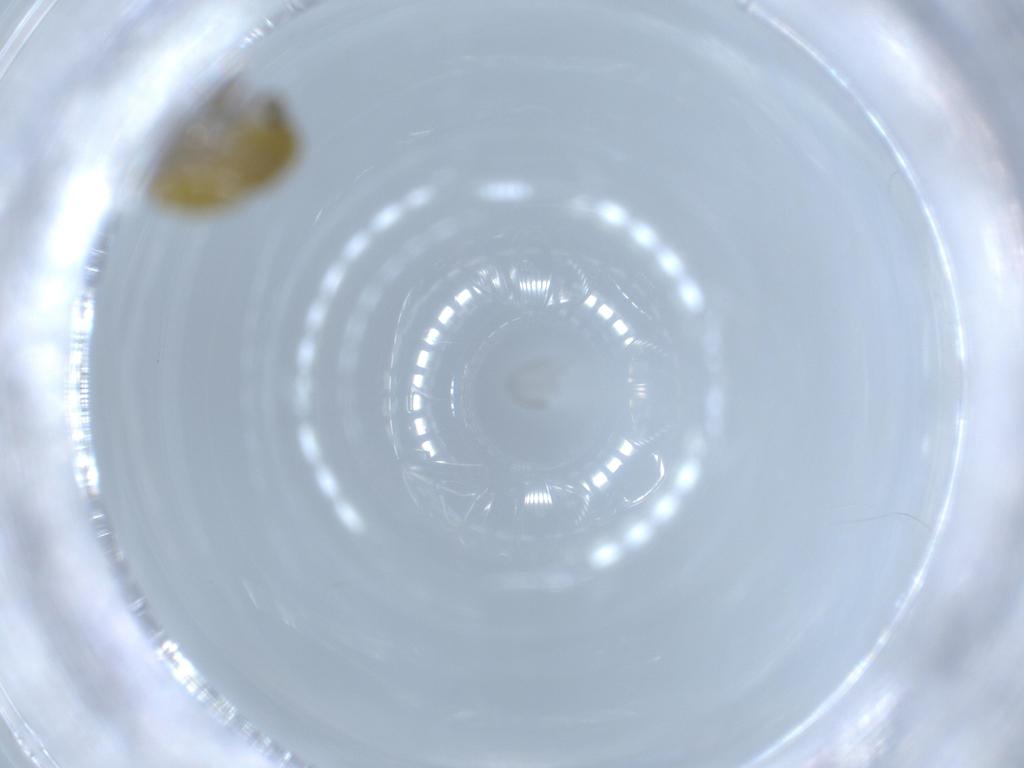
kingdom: Animalia
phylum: Arthropoda
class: Insecta
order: Diptera
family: Chironomidae
